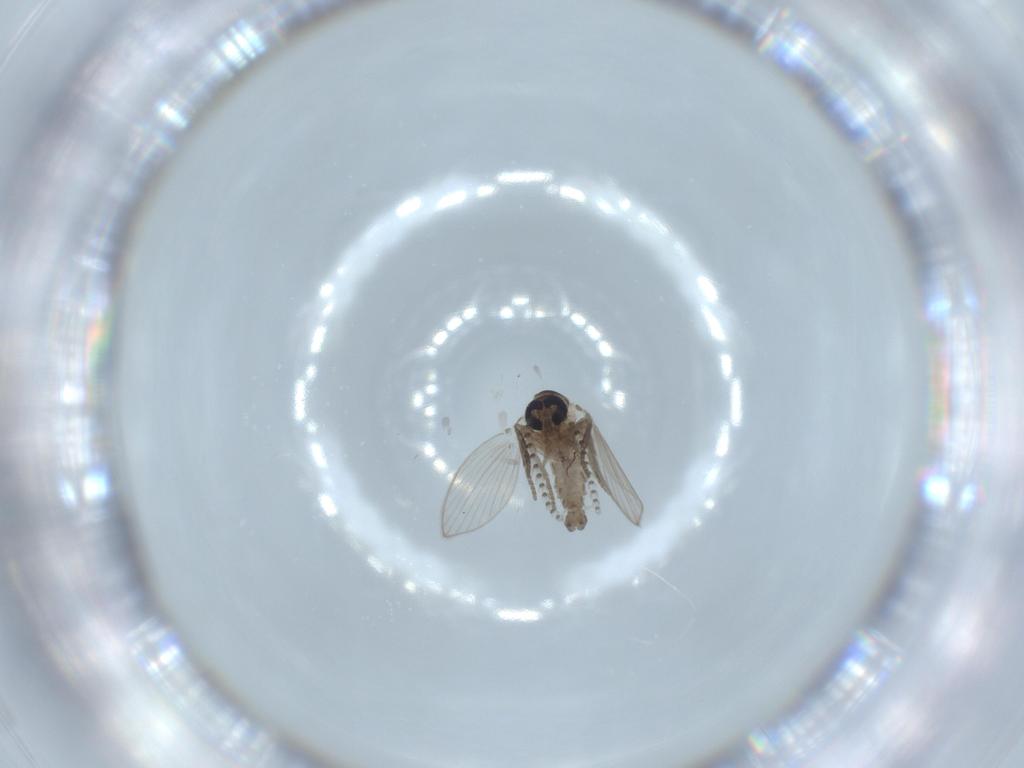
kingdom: Animalia
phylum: Arthropoda
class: Insecta
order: Diptera
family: Psychodidae
